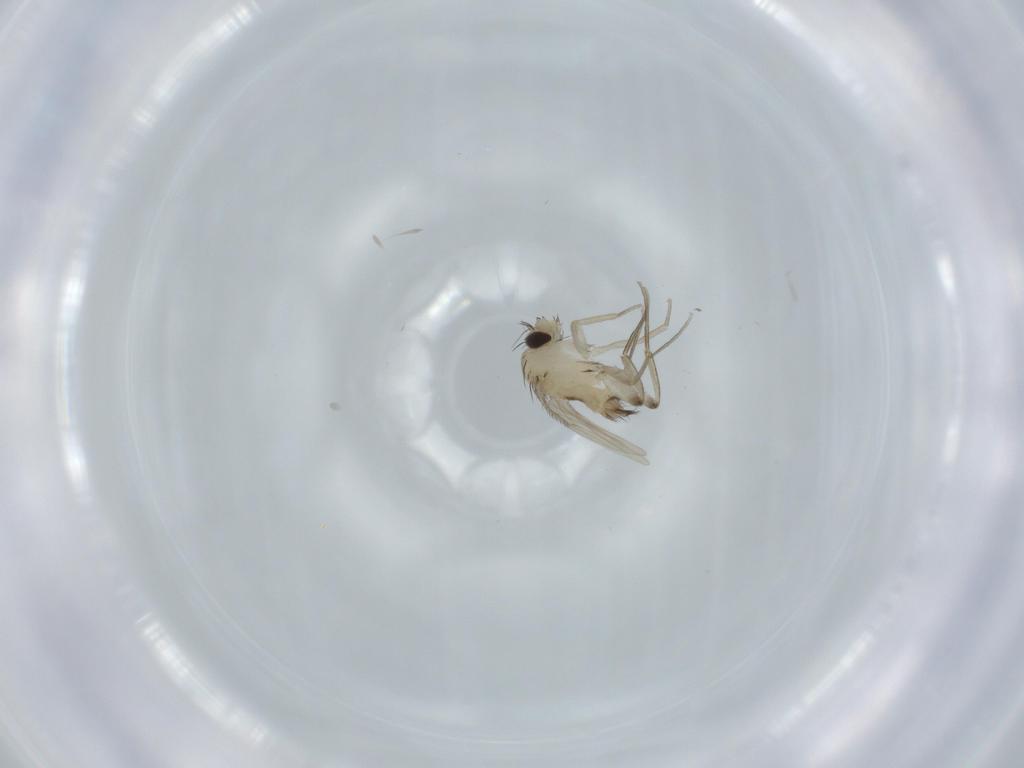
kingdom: Animalia
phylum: Arthropoda
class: Insecta
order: Diptera
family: Phoridae
